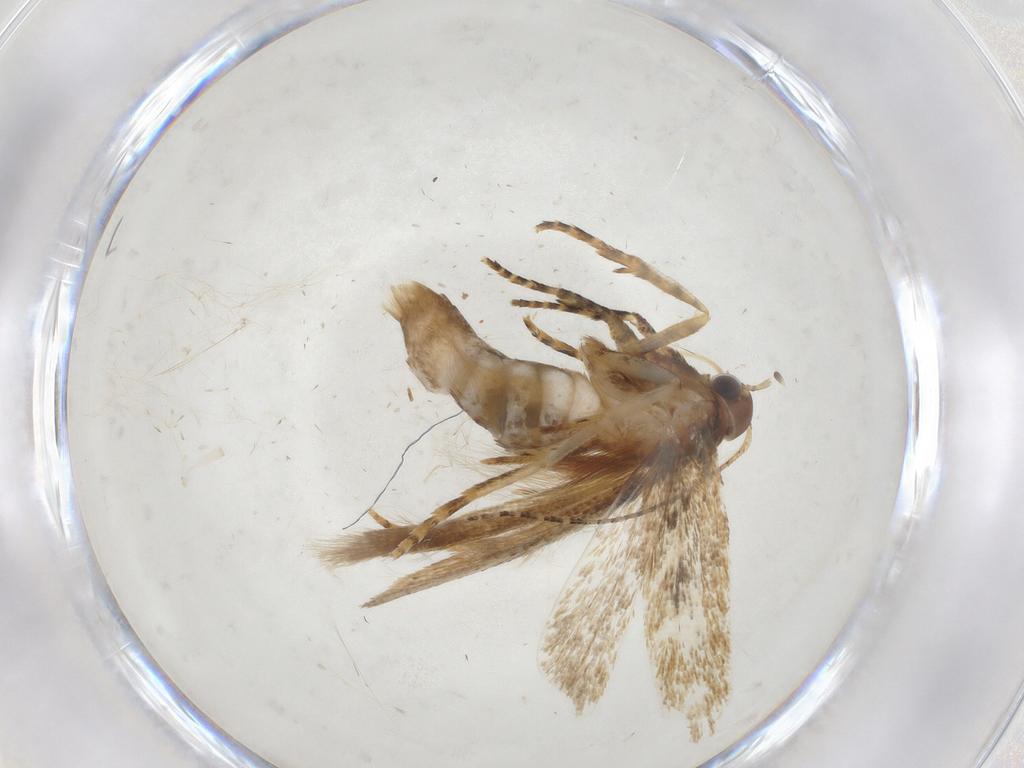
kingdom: Animalia
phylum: Arthropoda
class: Insecta
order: Lepidoptera
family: Gelechiidae
